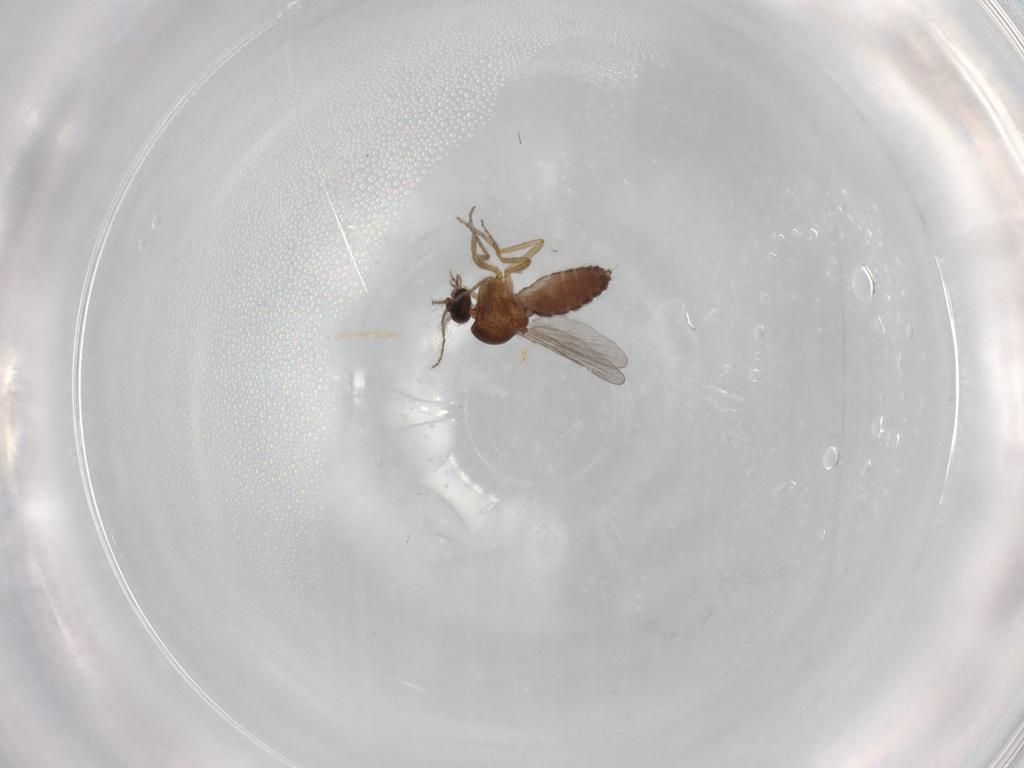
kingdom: Animalia
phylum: Arthropoda
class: Insecta
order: Diptera
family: Ceratopogonidae
